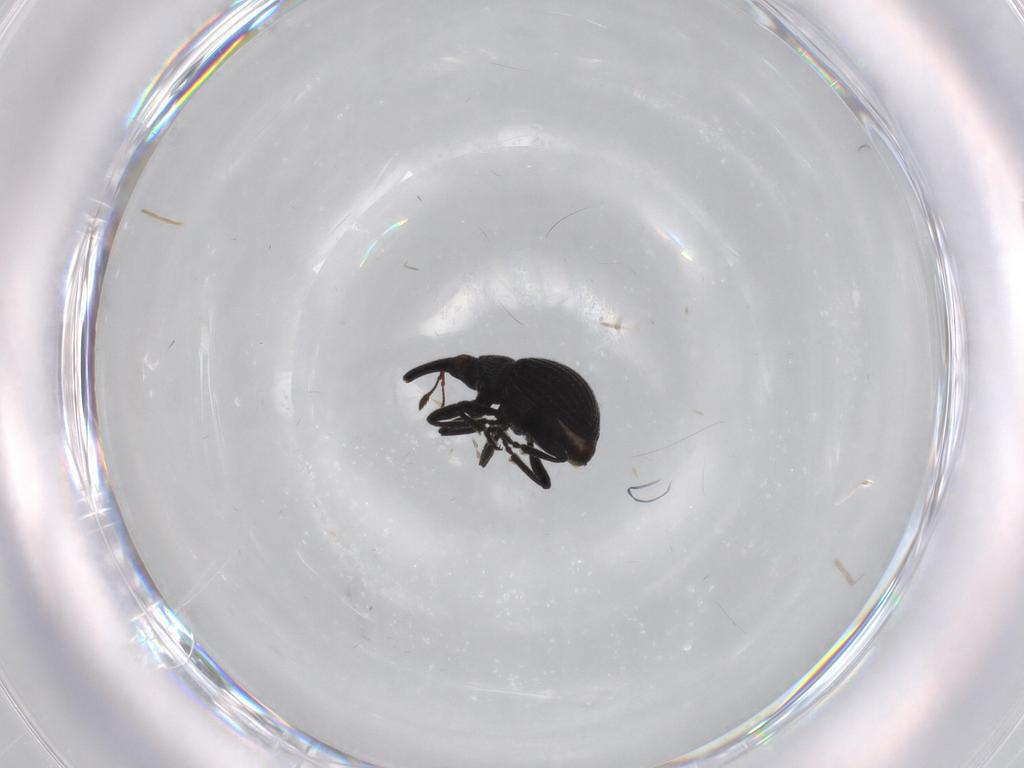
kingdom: Animalia
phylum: Arthropoda
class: Insecta
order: Coleoptera
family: Brentidae
